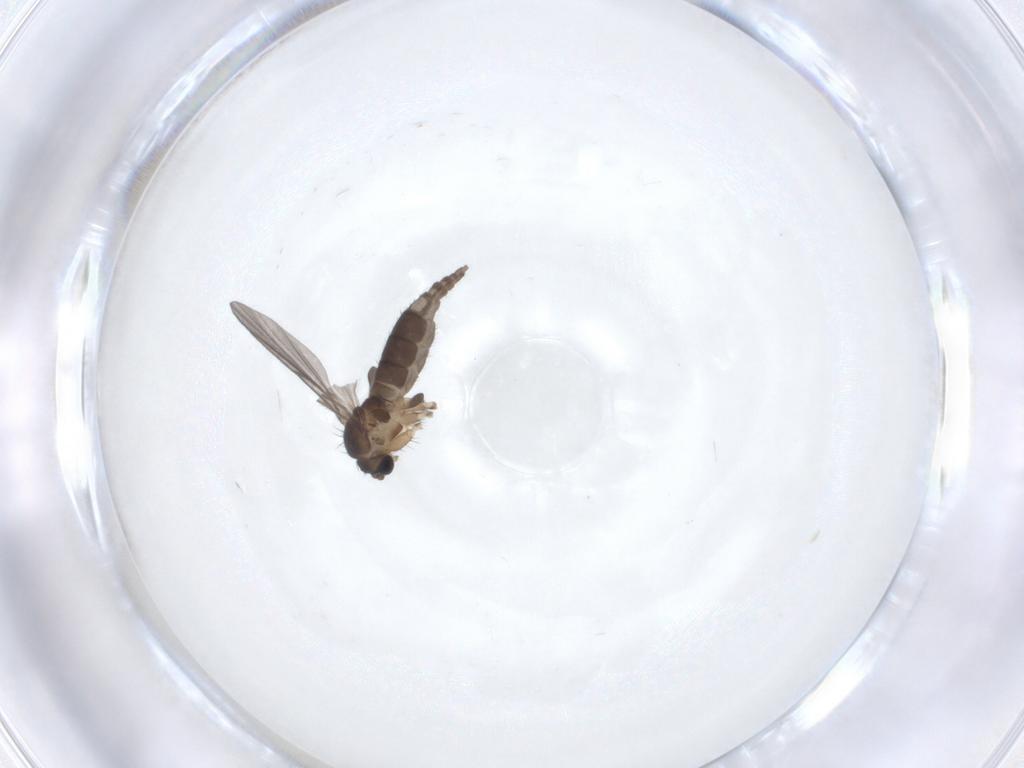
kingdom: Animalia
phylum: Arthropoda
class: Insecta
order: Diptera
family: Sciaridae
